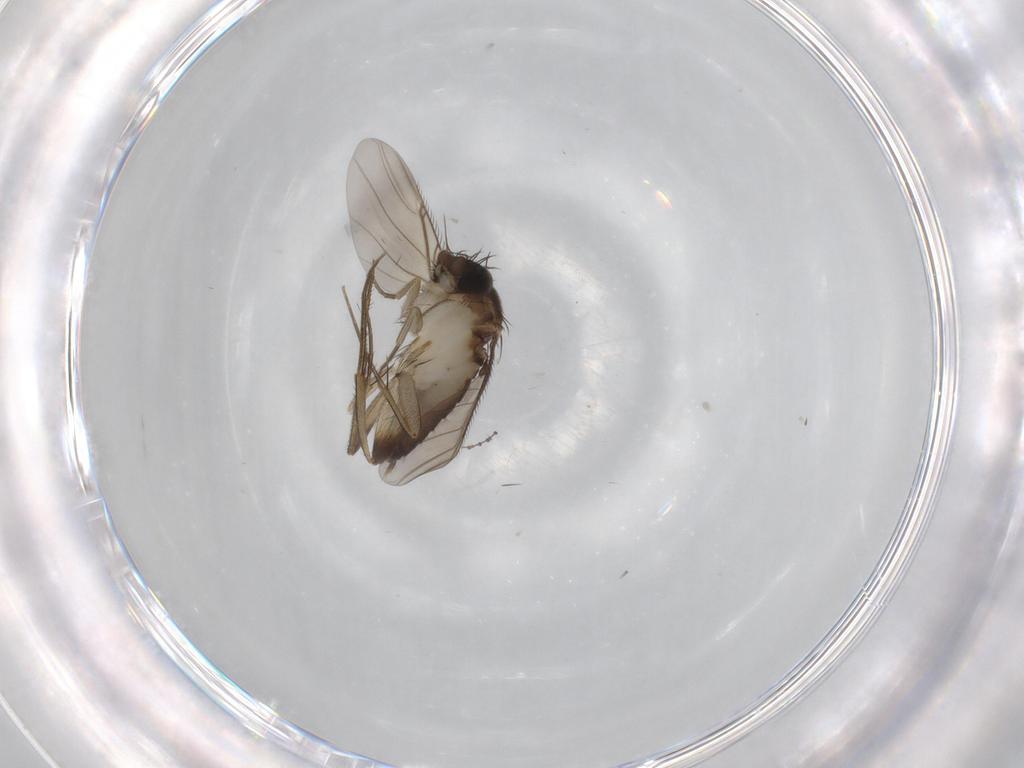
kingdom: Animalia
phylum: Arthropoda
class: Insecta
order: Diptera
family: Phoridae
